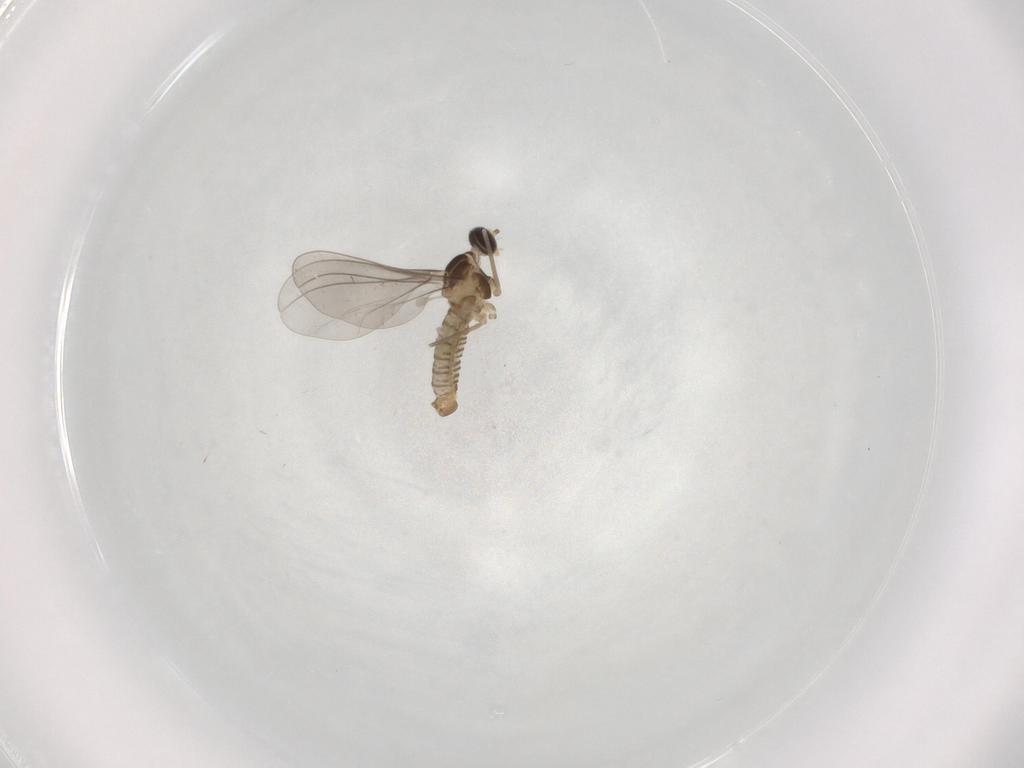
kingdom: Animalia
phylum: Arthropoda
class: Insecta
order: Diptera
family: Cecidomyiidae
